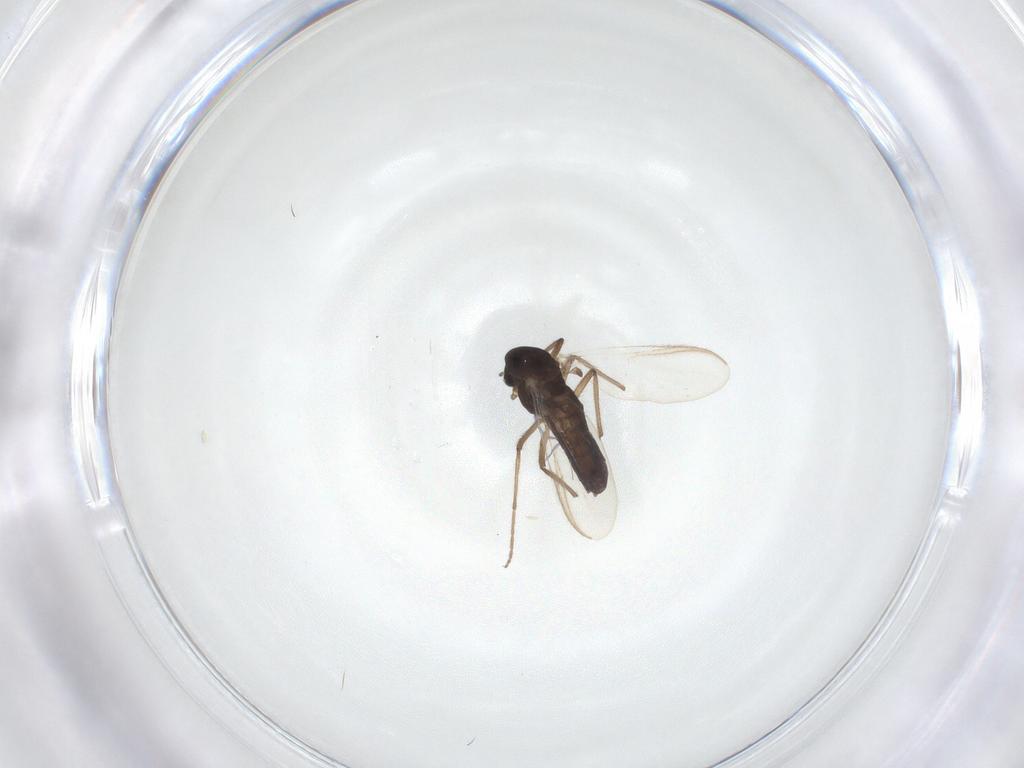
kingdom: Animalia
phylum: Arthropoda
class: Insecta
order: Diptera
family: Chironomidae
